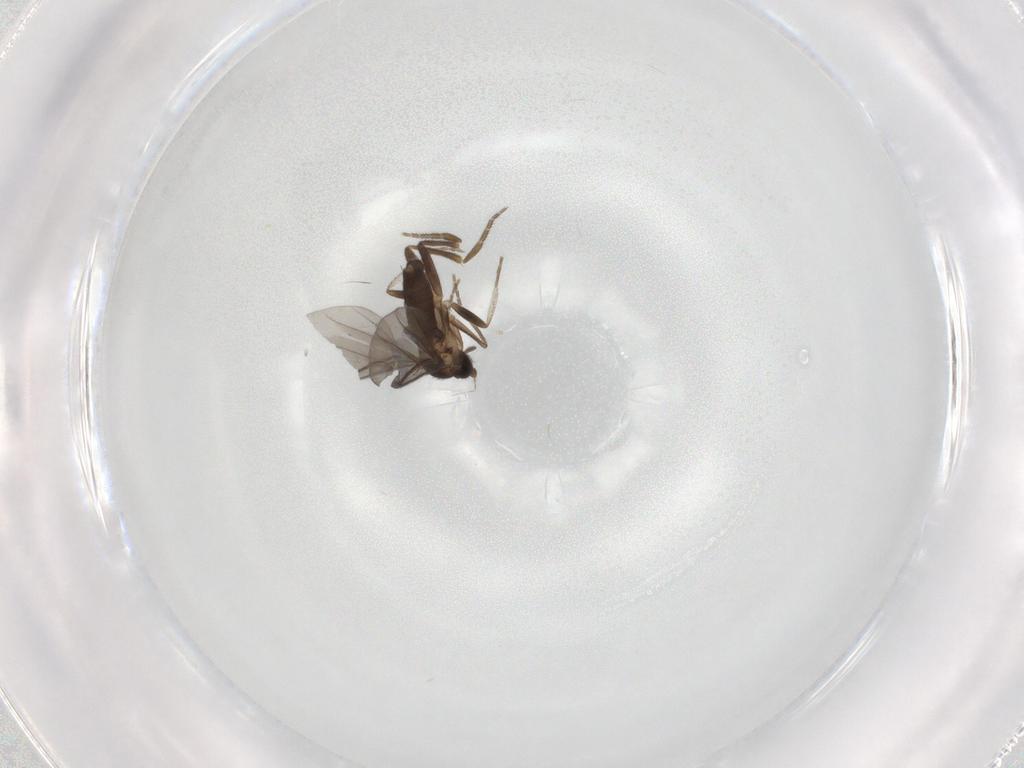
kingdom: Animalia
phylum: Arthropoda
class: Insecta
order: Diptera
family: Phoridae
